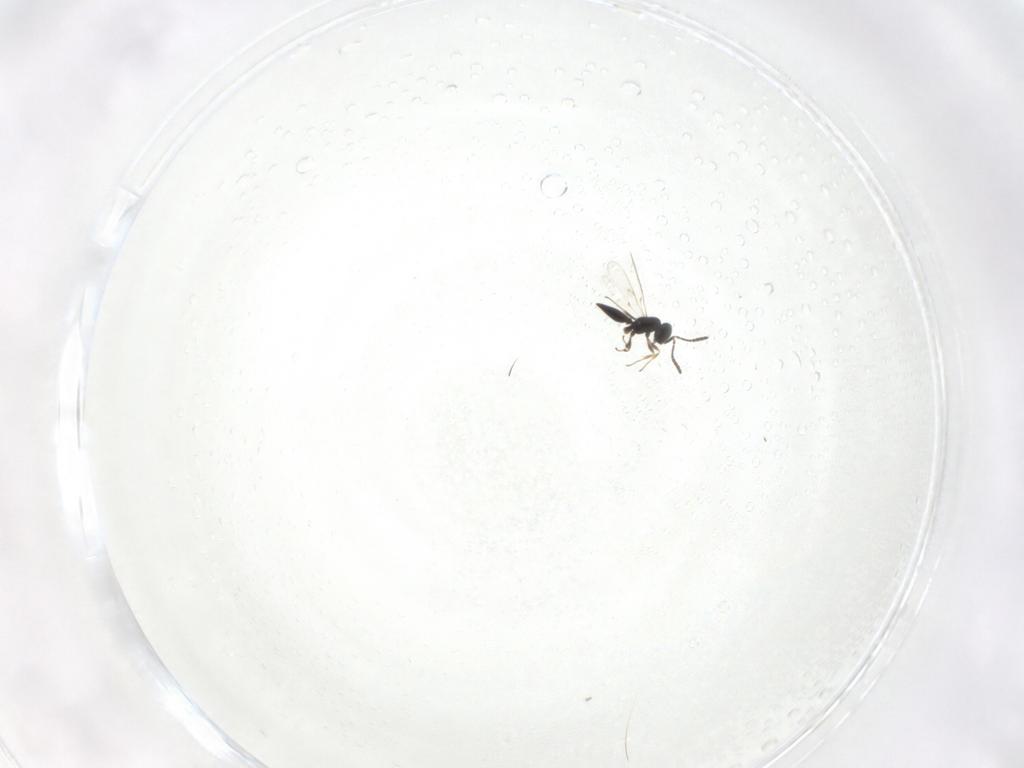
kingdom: Animalia
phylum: Arthropoda
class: Insecta
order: Hymenoptera
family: Scelionidae
